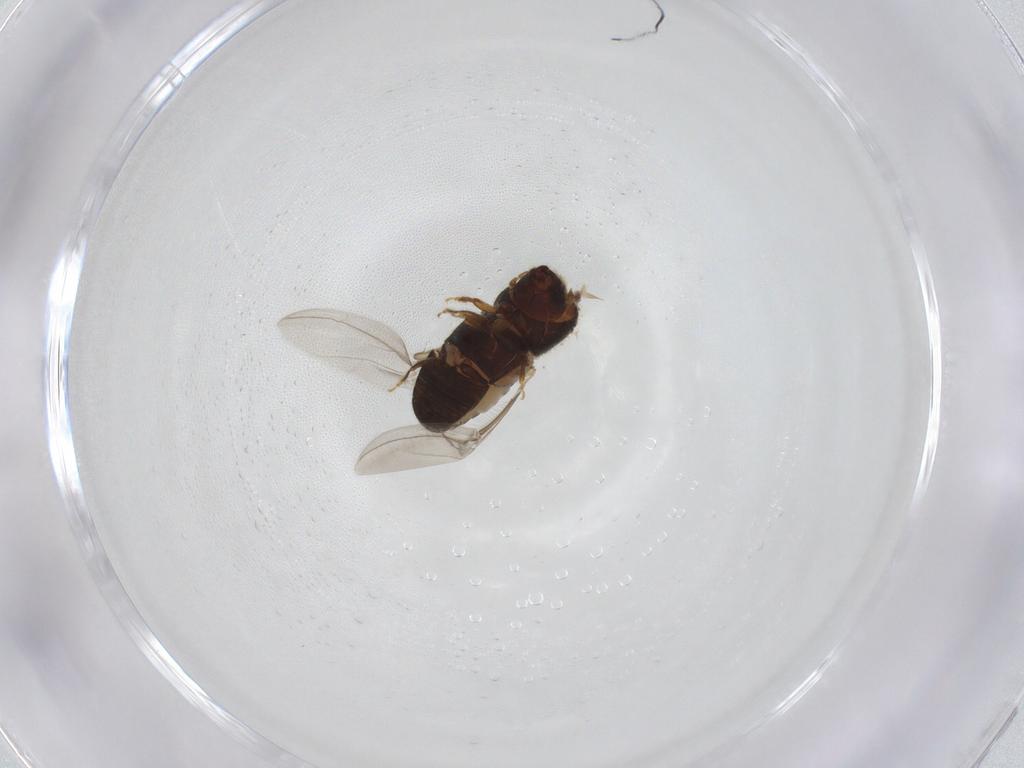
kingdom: Animalia
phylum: Arthropoda
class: Insecta
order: Coleoptera
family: Curculionidae
